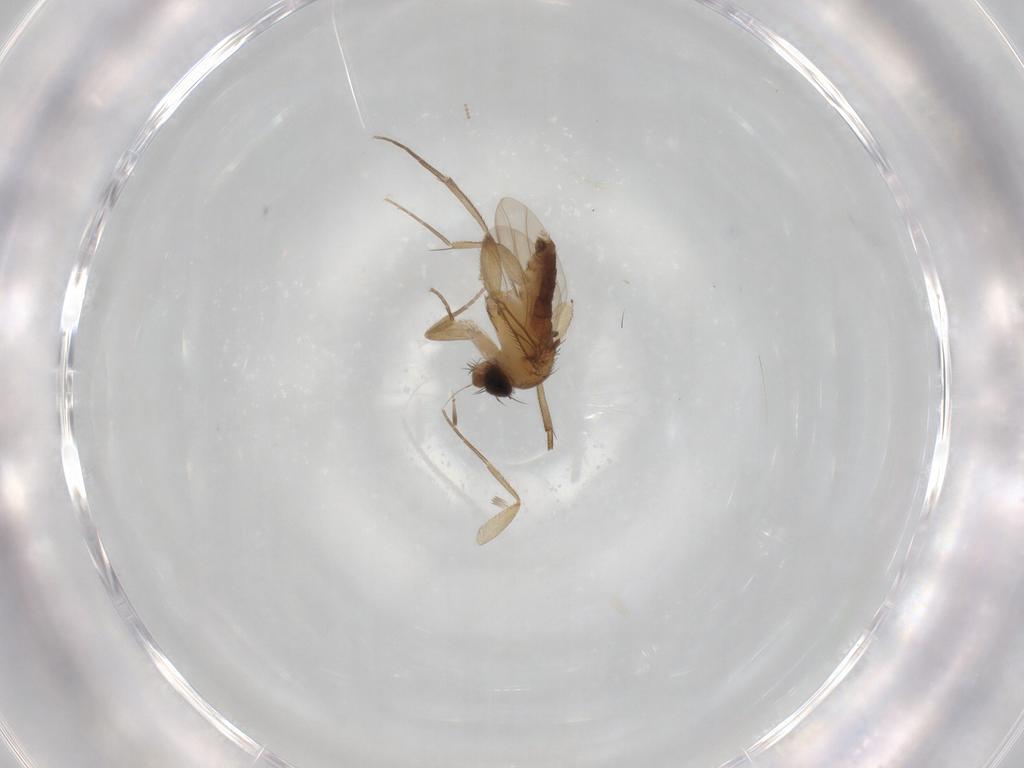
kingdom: Animalia
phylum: Arthropoda
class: Insecta
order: Diptera
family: Phoridae
